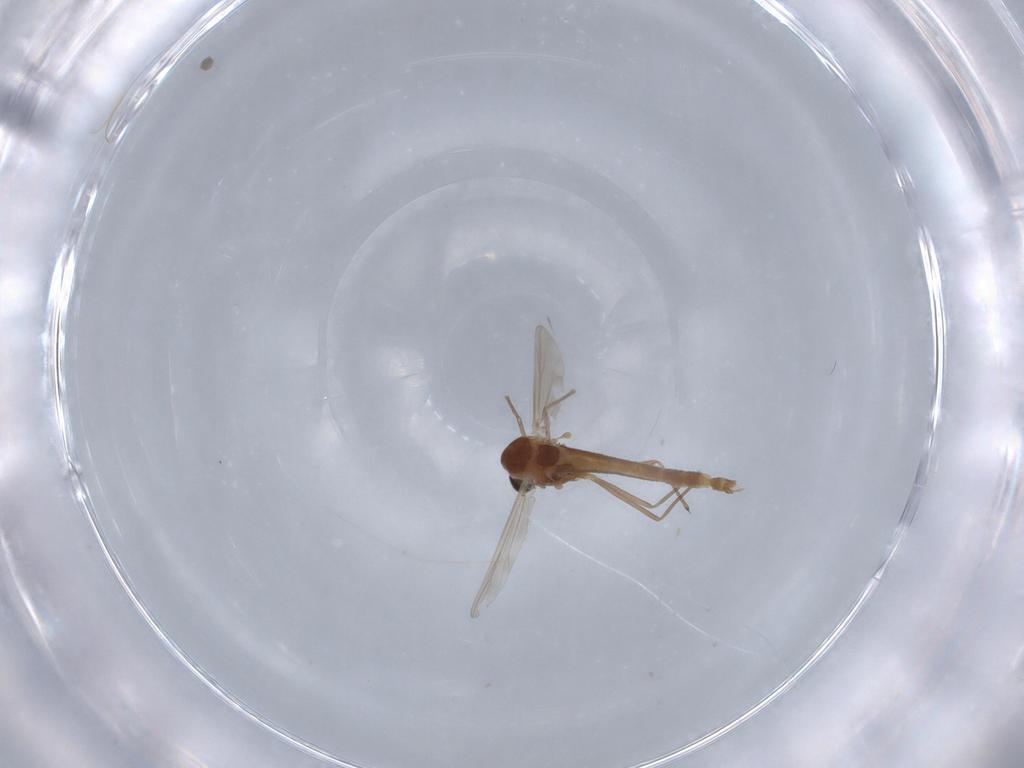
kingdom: Animalia
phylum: Arthropoda
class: Insecta
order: Diptera
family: Chironomidae
